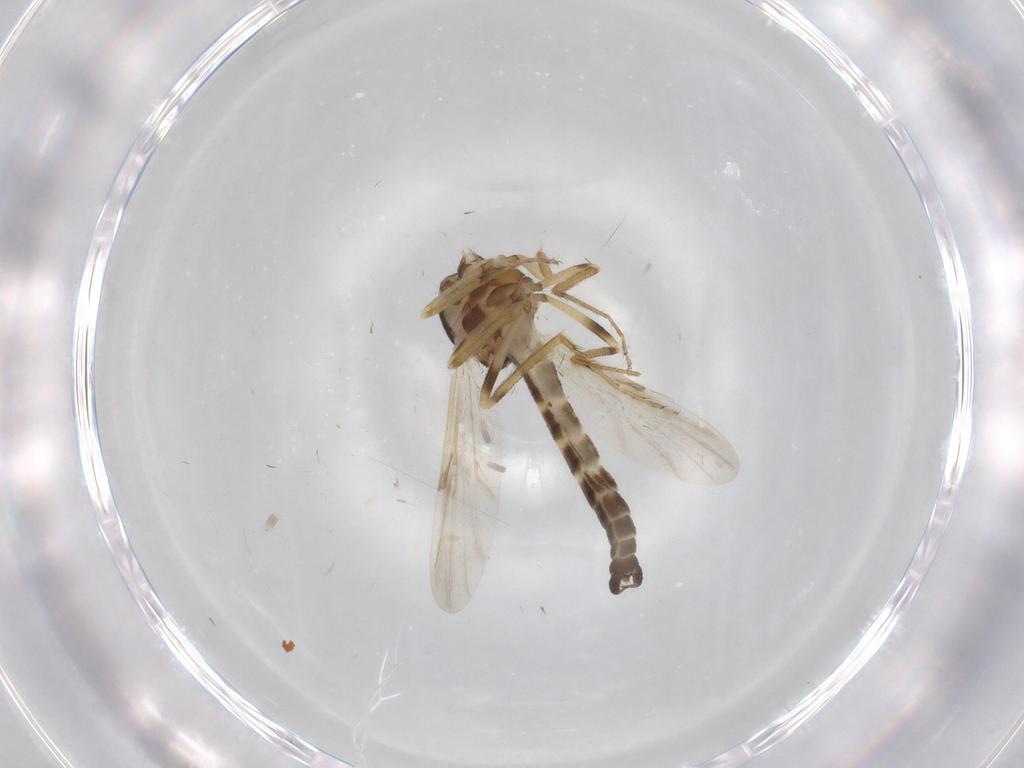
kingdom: Animalia
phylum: Arthropoda
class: Insecta
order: Diptera
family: Ceratopogonidae
